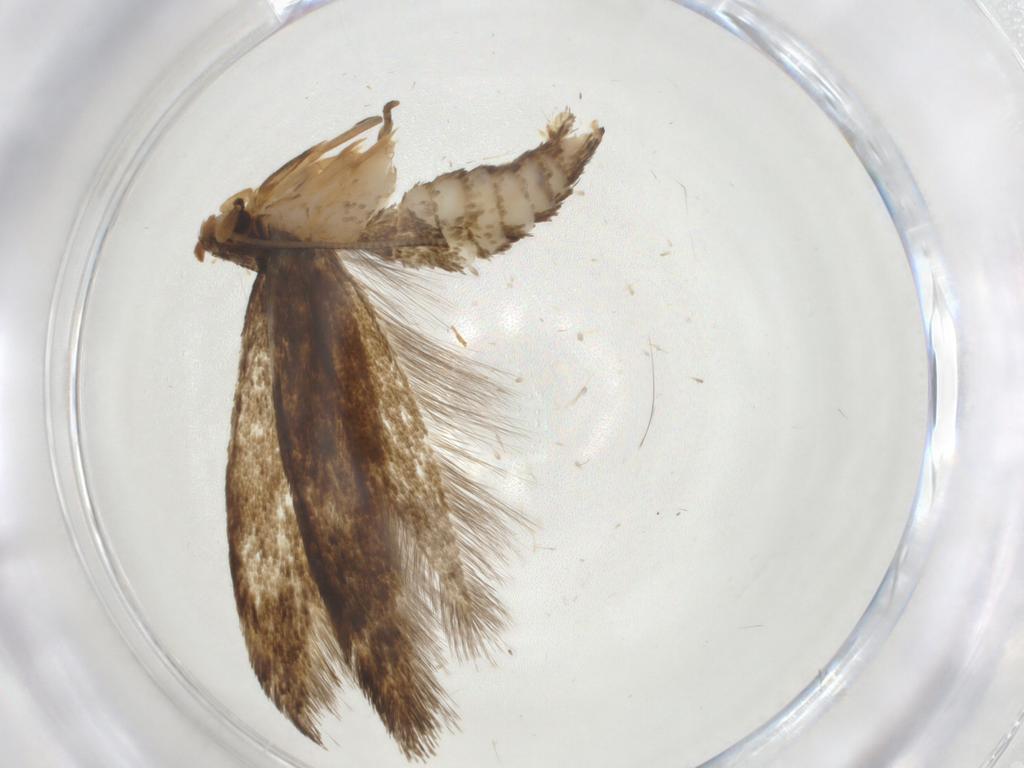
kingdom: Animalia
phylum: Arthropoda
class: Insecta
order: Lepidoptera
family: Tineidae
